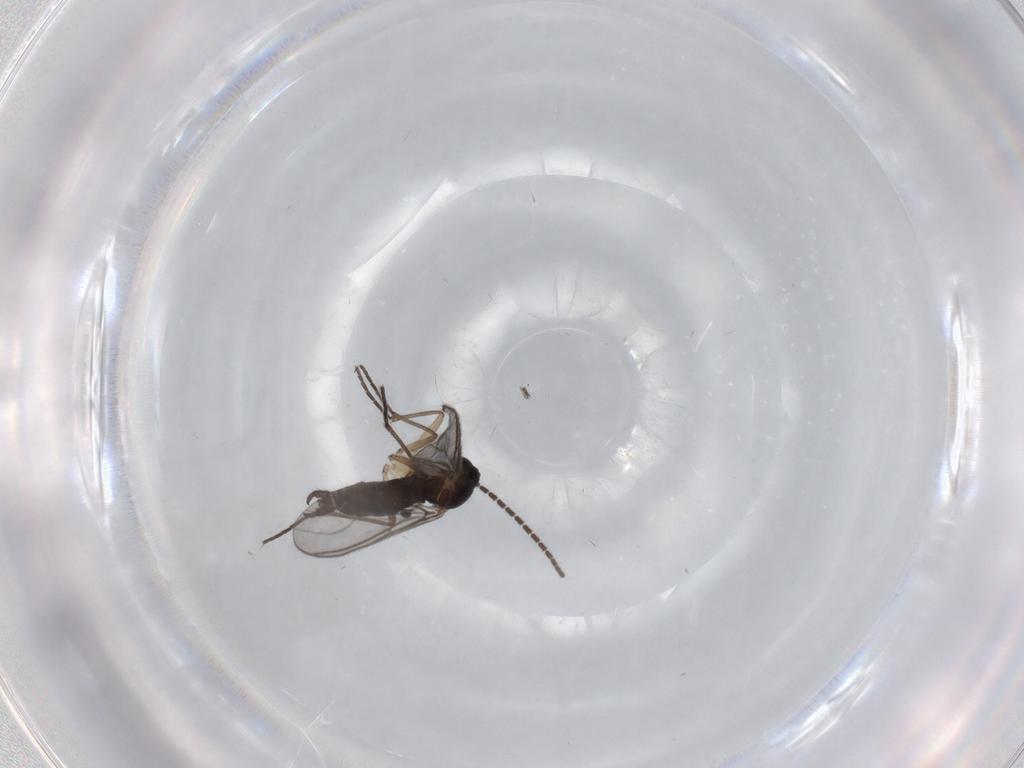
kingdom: Animalia
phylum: Arthropoda
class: Insecta
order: Diptera
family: Sciaridae
